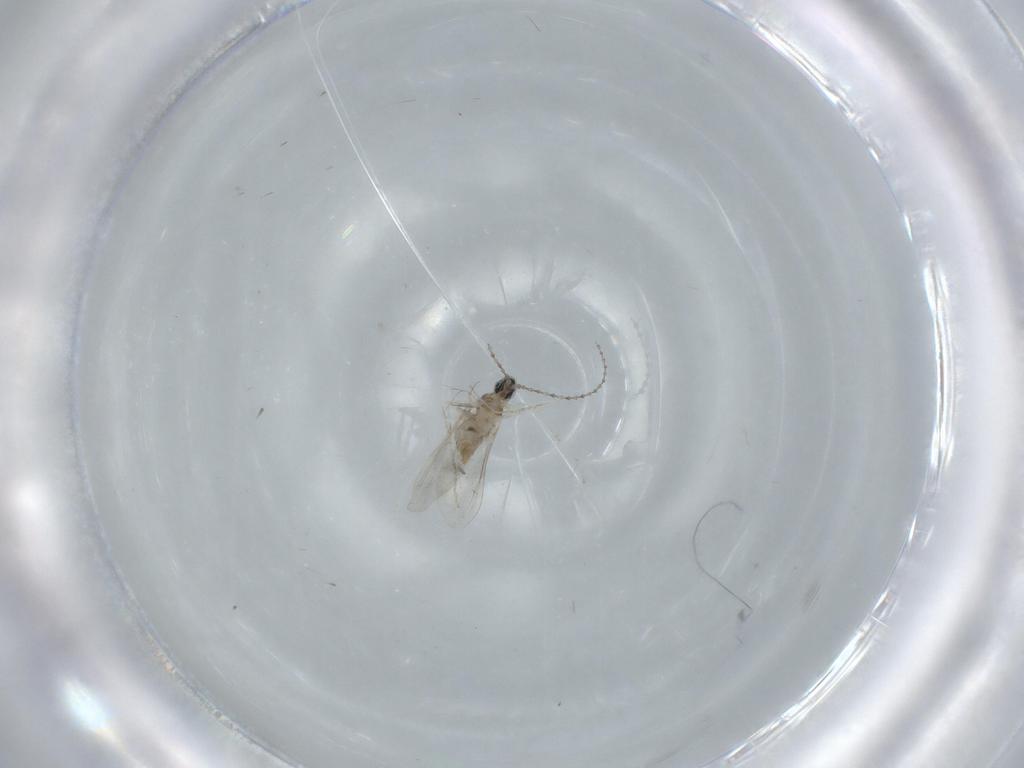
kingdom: Animalia
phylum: Arthropoda
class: Insecta
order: Diptera
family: Cecidomyiidae
